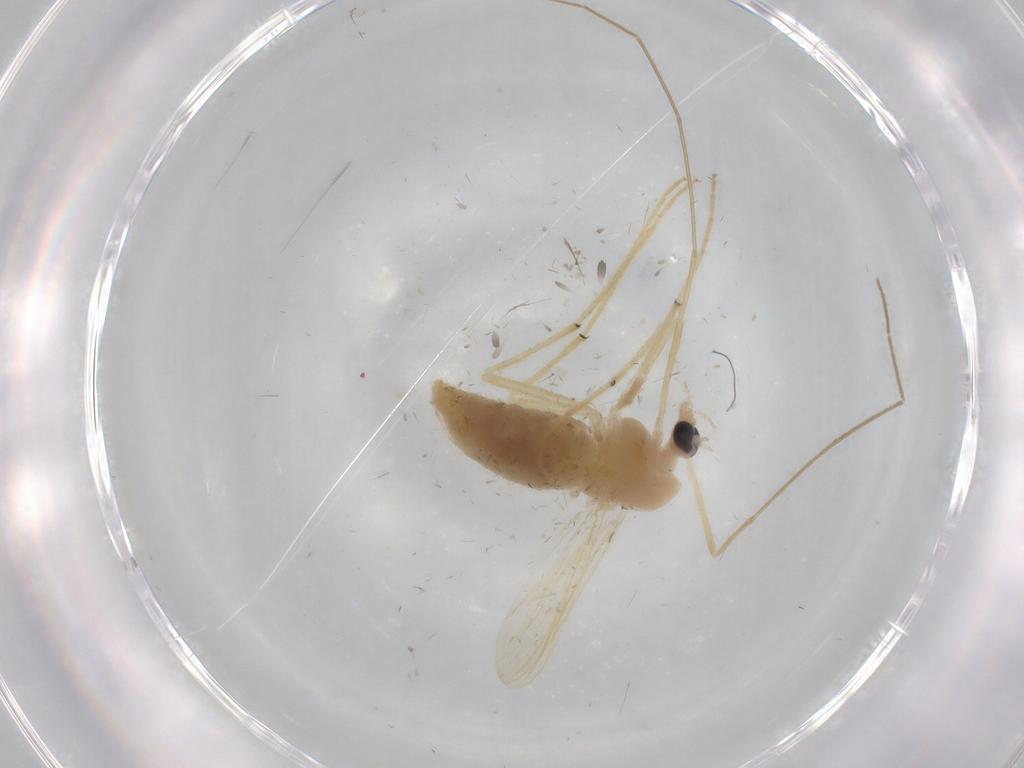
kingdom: Animalia
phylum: Arthropoda
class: Insecta
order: Diptera
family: Chironomidae
